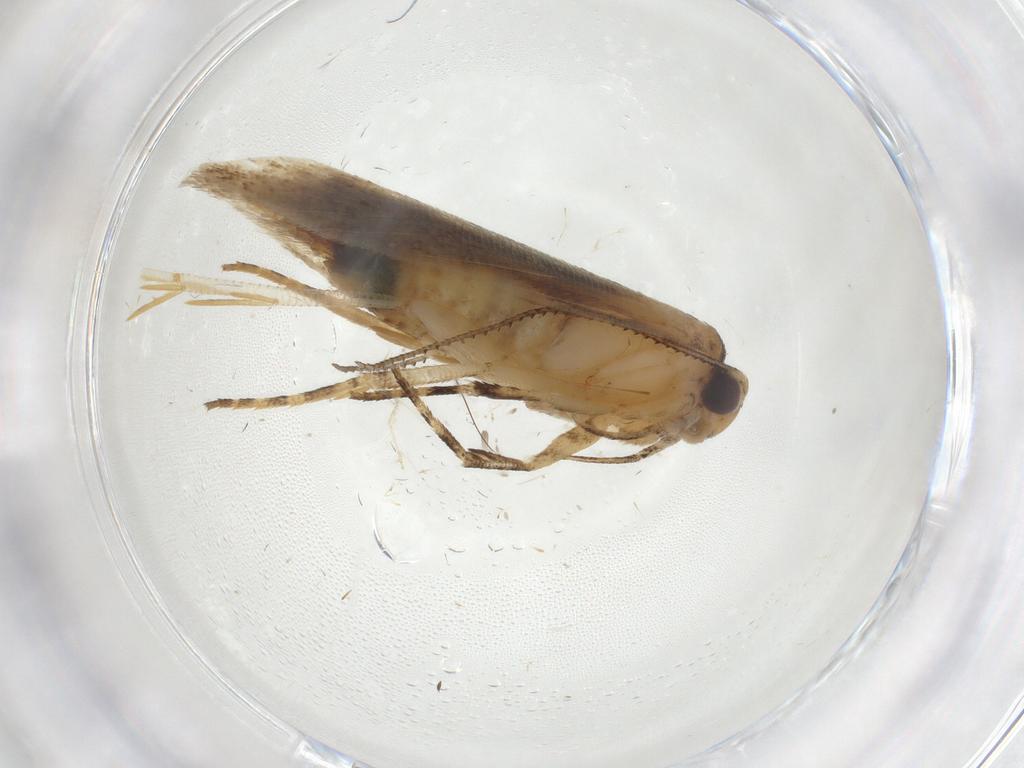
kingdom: Animalia
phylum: Arthropoda
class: Insecta
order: Lepidoptera
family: Gelechiidae
